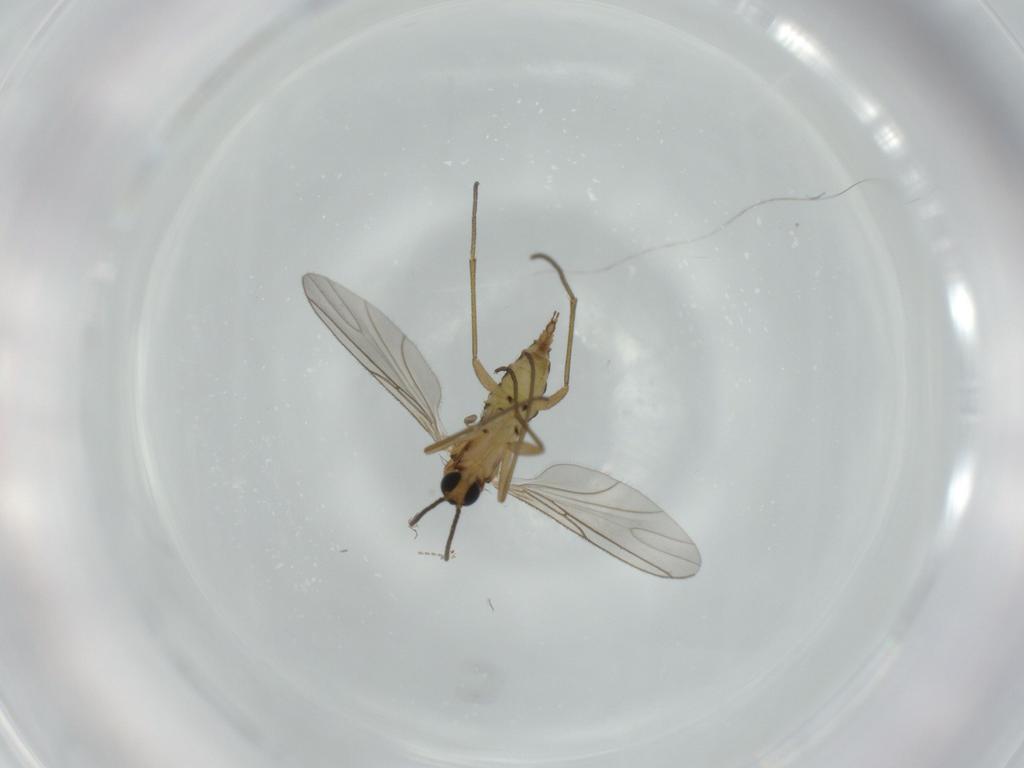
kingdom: Animalia
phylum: Arthropoda
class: Insecta
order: Diptera
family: Sciaridae
